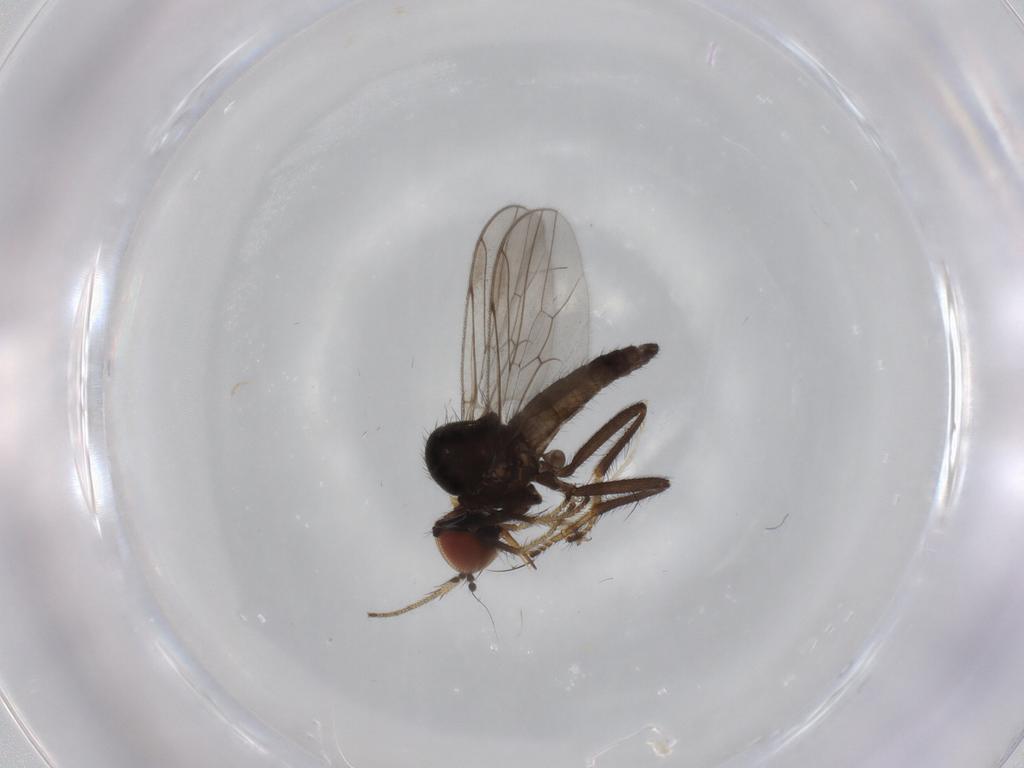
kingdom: Animalia
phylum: Arthropoda
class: Insecta
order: Diptera
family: Hybotidae
